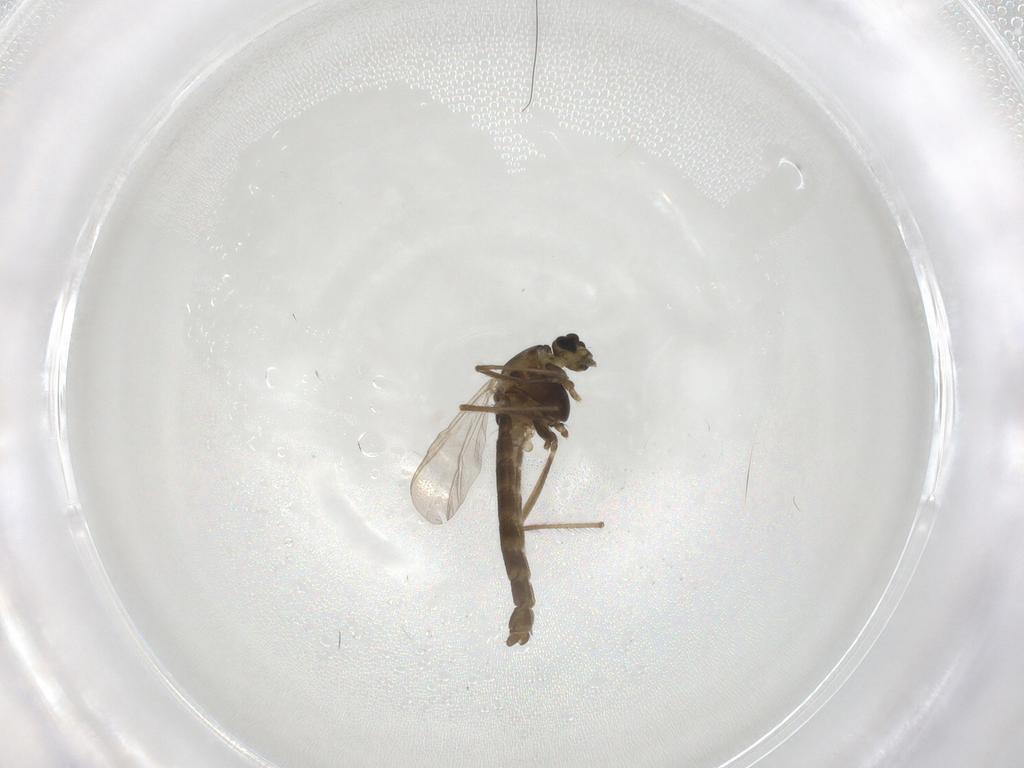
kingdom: Animalia
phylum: Arthropoda
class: Insecta
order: Diptera
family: Chironomidae
